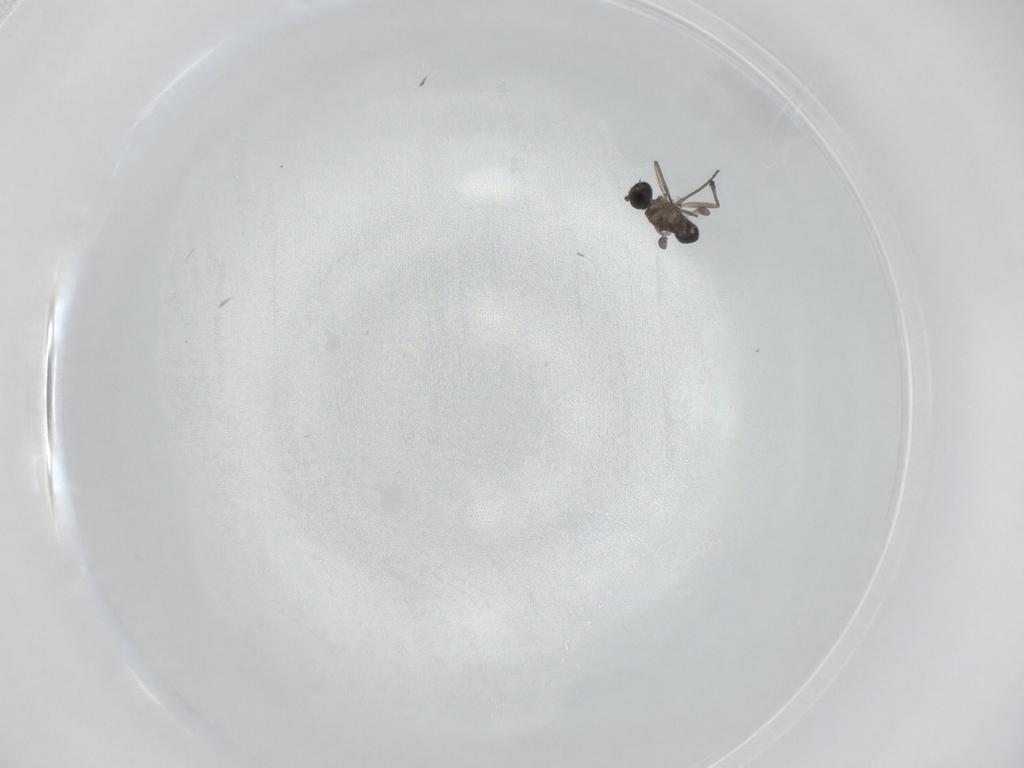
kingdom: Animalia
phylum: Arthropoda
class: Insecta
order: Diptera
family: Sciaridae
